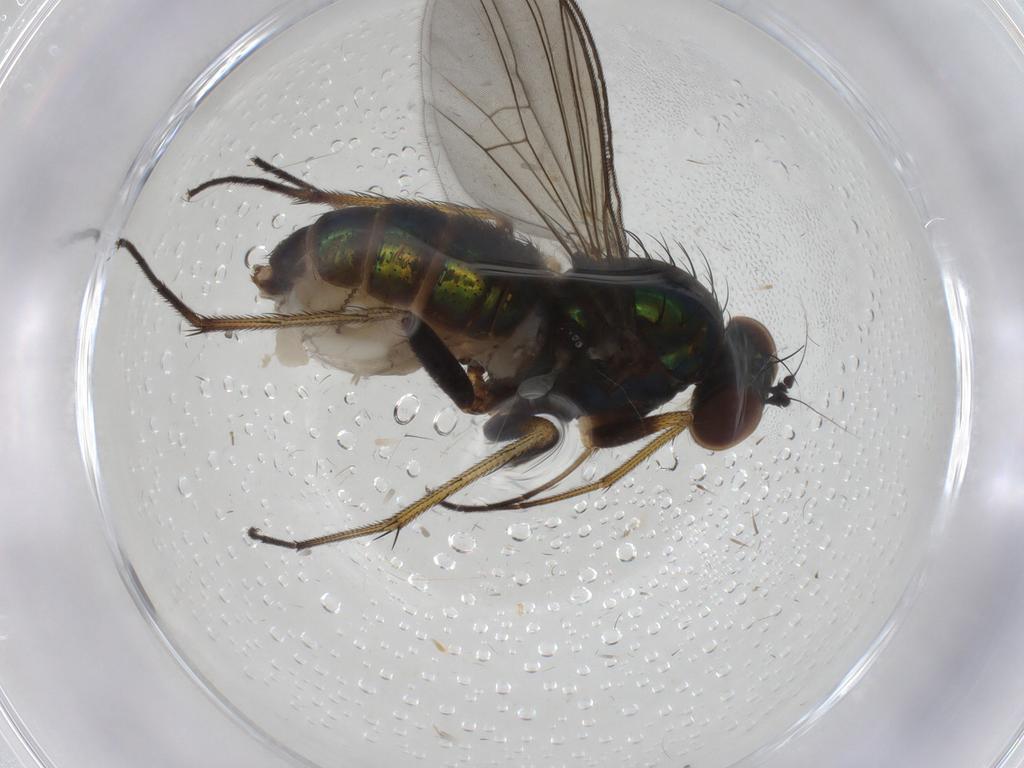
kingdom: Animalia
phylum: Arthropoda
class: Insecta
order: Diptera
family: Dolichopodidae
